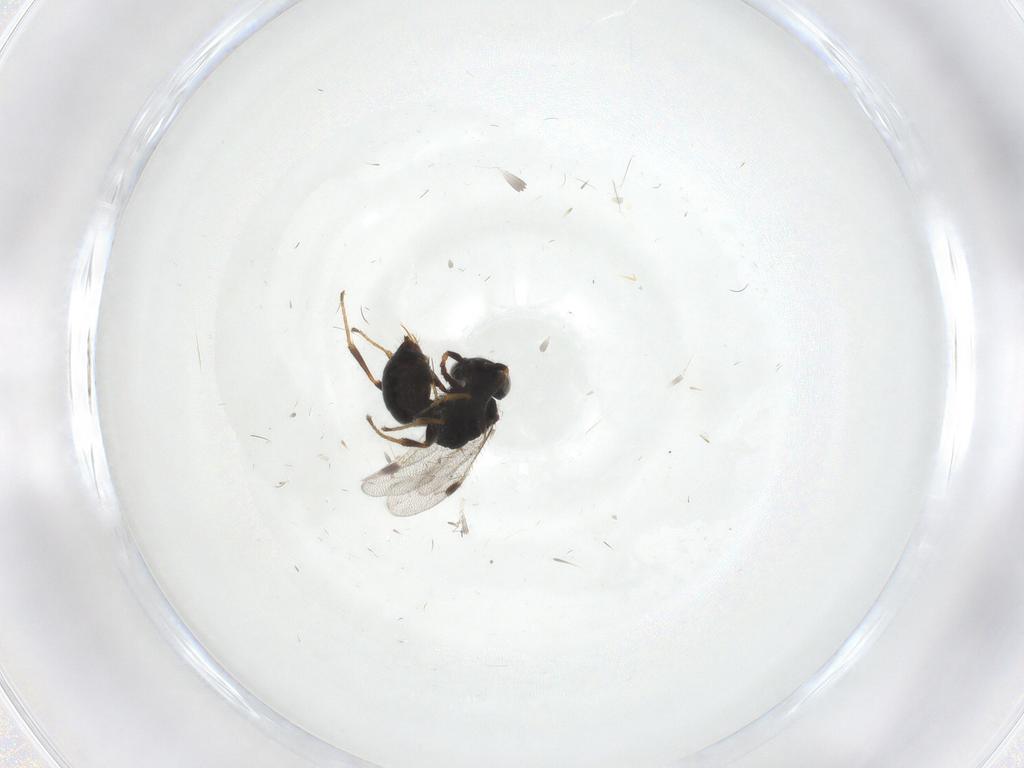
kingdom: Animalia
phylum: Arthropoda
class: Insecta
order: Hymenoptera
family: Dryinidae
